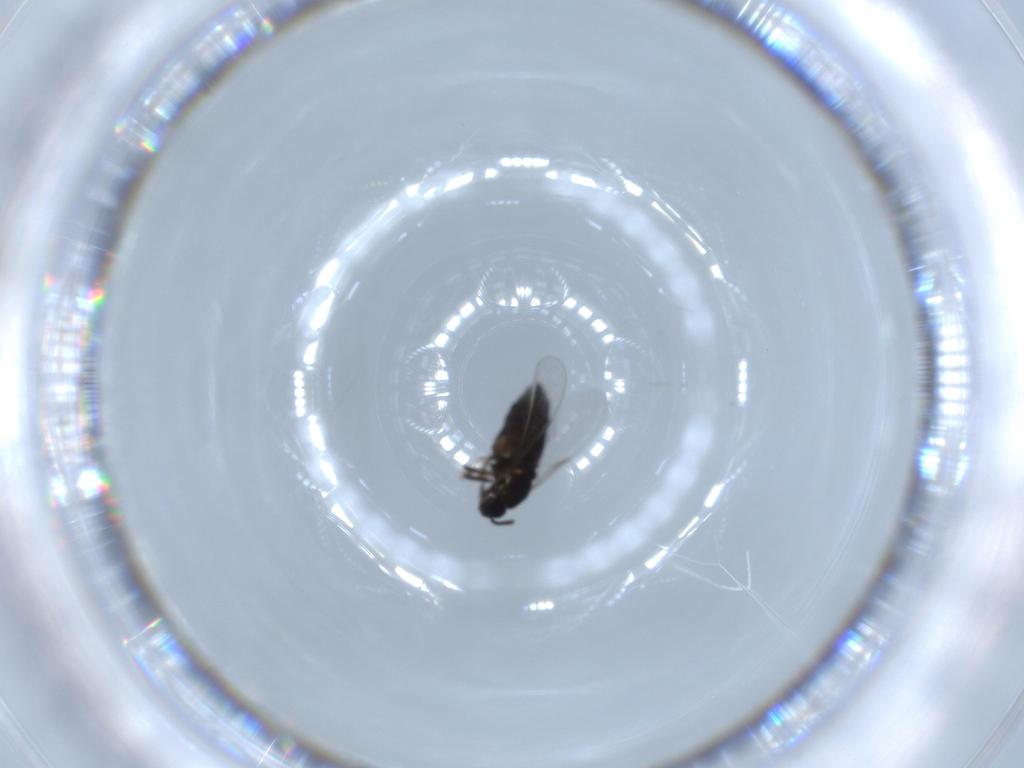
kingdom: Animalia
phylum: Arthropoda
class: Insecta
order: Diptera
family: Scatopsidae
